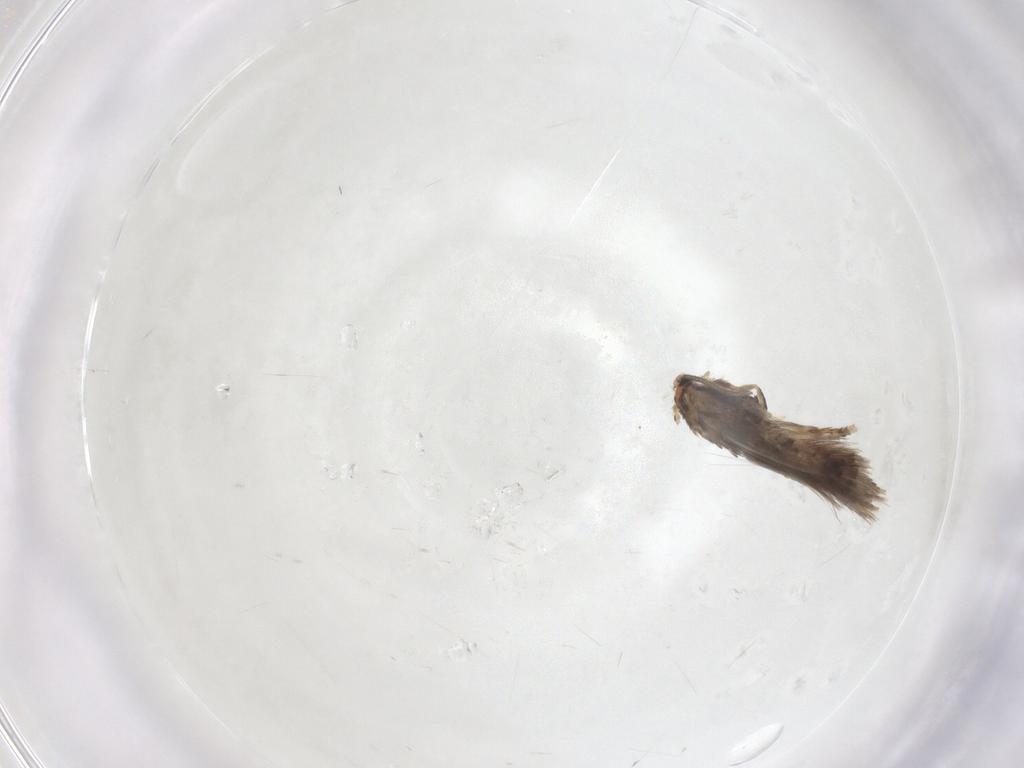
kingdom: Animalia
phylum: Arthropoda
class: Insecta
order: Lepidoptera
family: Nepticulidae
